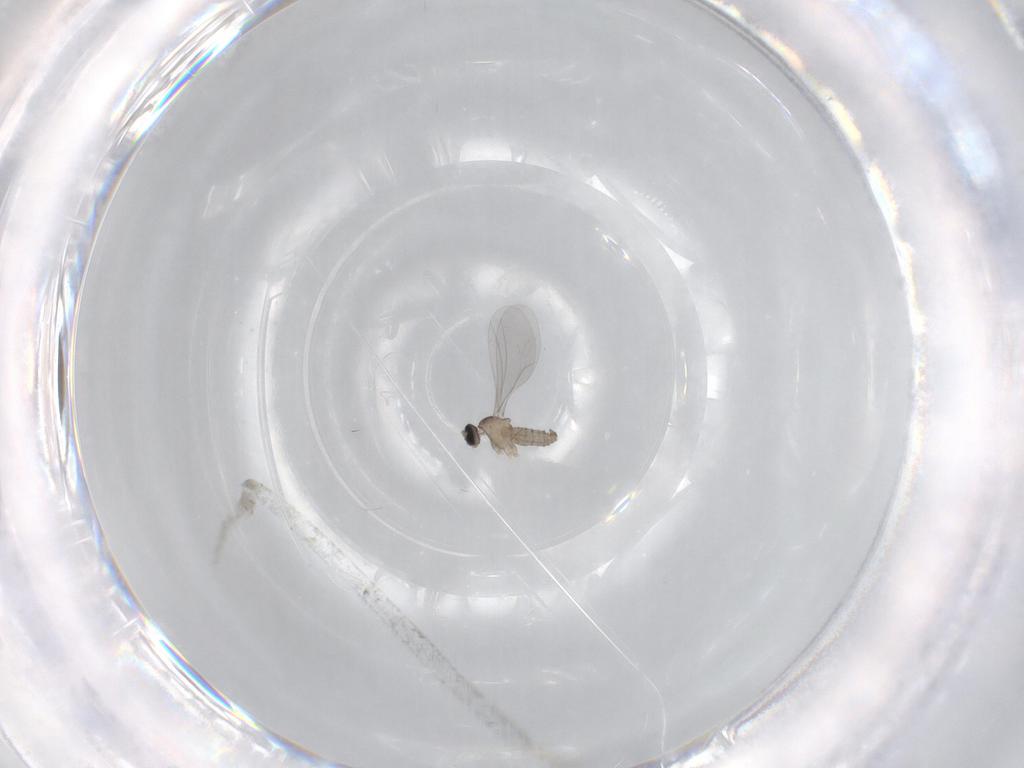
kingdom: Animalia
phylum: Arthropoda
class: Insecta
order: Diptera
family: Cecidomyiidae
